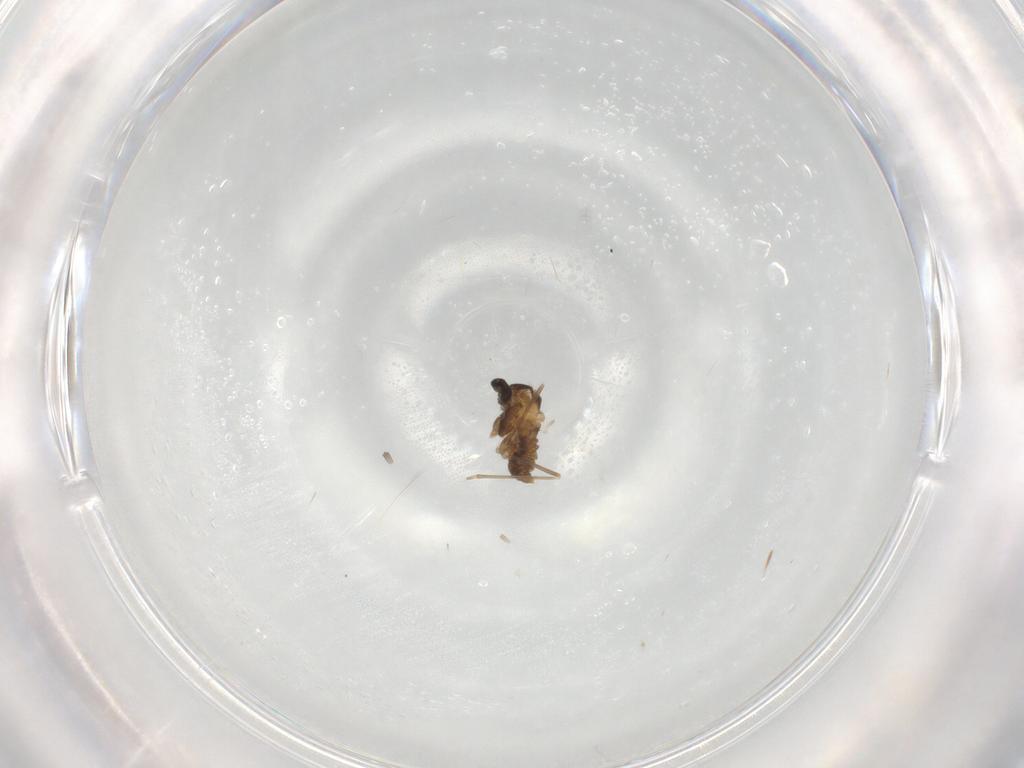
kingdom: Animalia
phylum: Arthropoda
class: Insecta
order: Diptera
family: Cecidomyiidae
